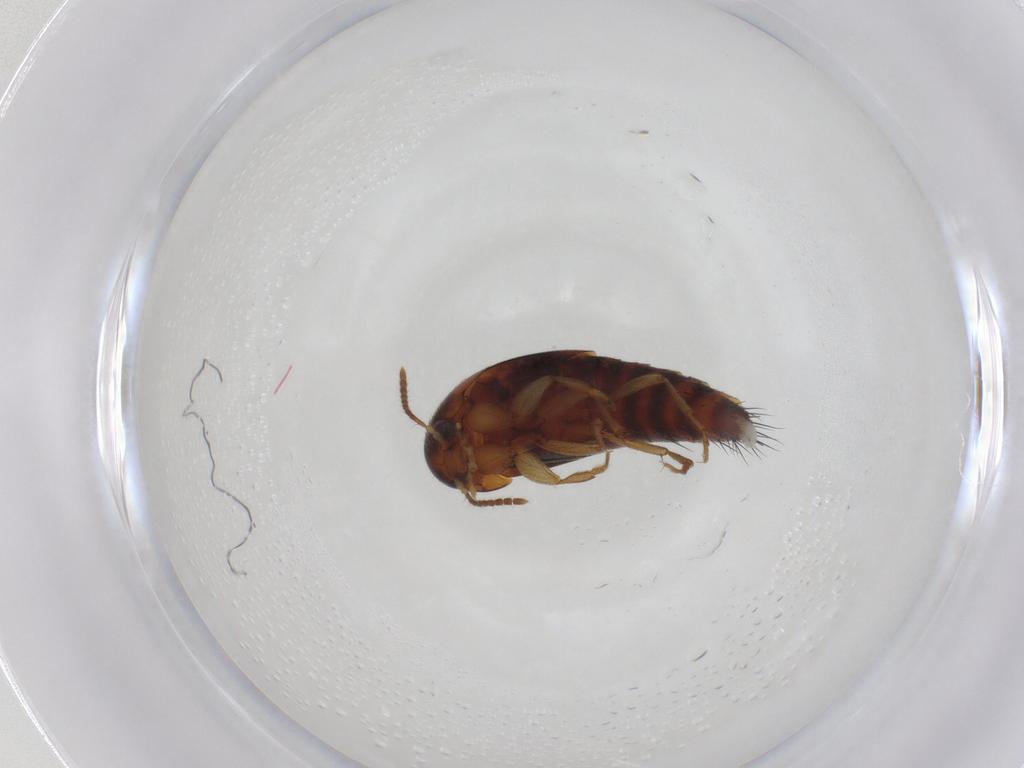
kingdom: Animalia
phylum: Arthropoda
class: Insecta
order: Coleoptera
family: Staphylinidae
